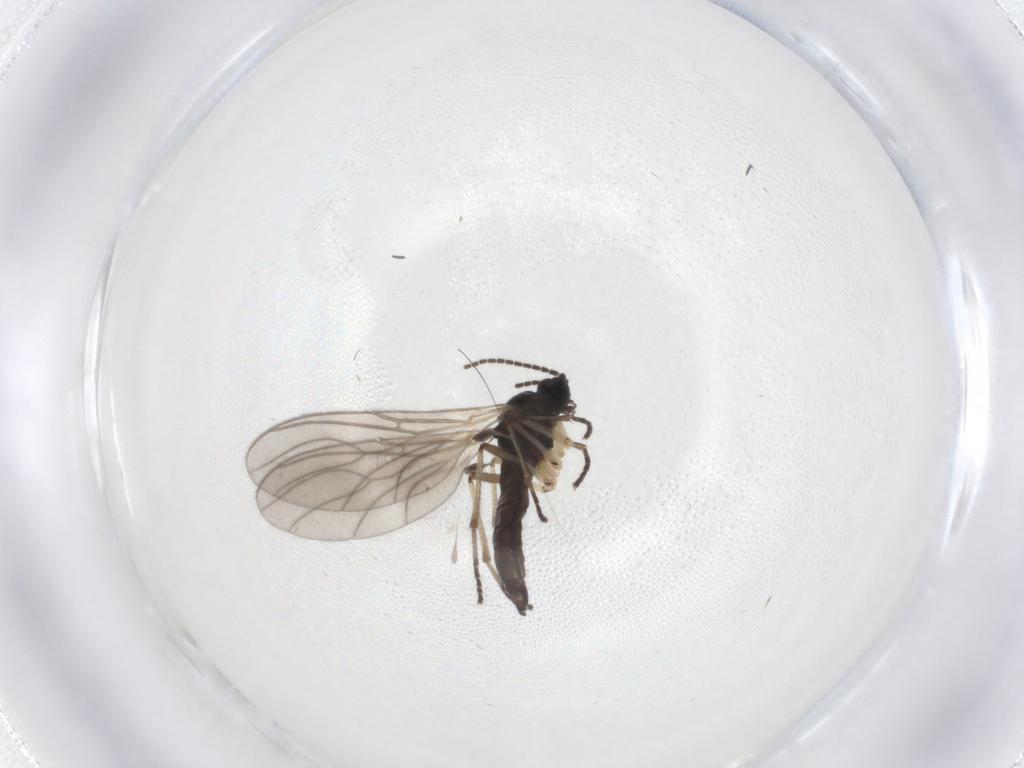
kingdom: Animalia
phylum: Arthropoda
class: Insecta
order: Diptera
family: Sciaridae
